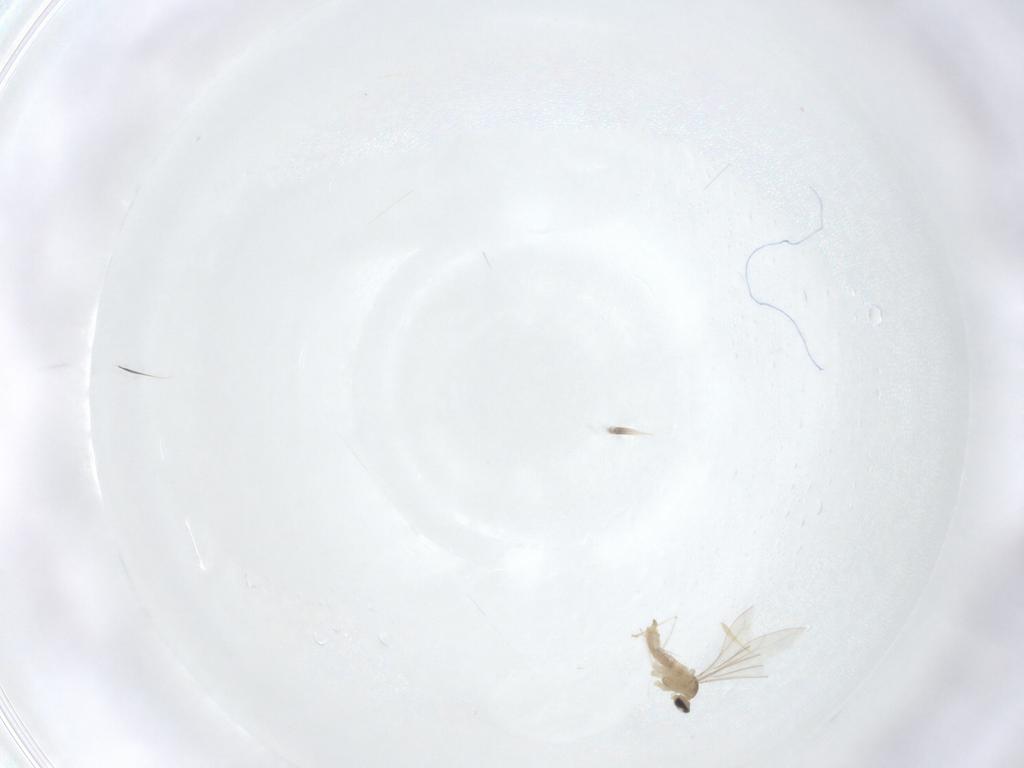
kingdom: Animalia
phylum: Arthropoda
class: Insecta
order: Diptera
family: Cecidomyiidae
